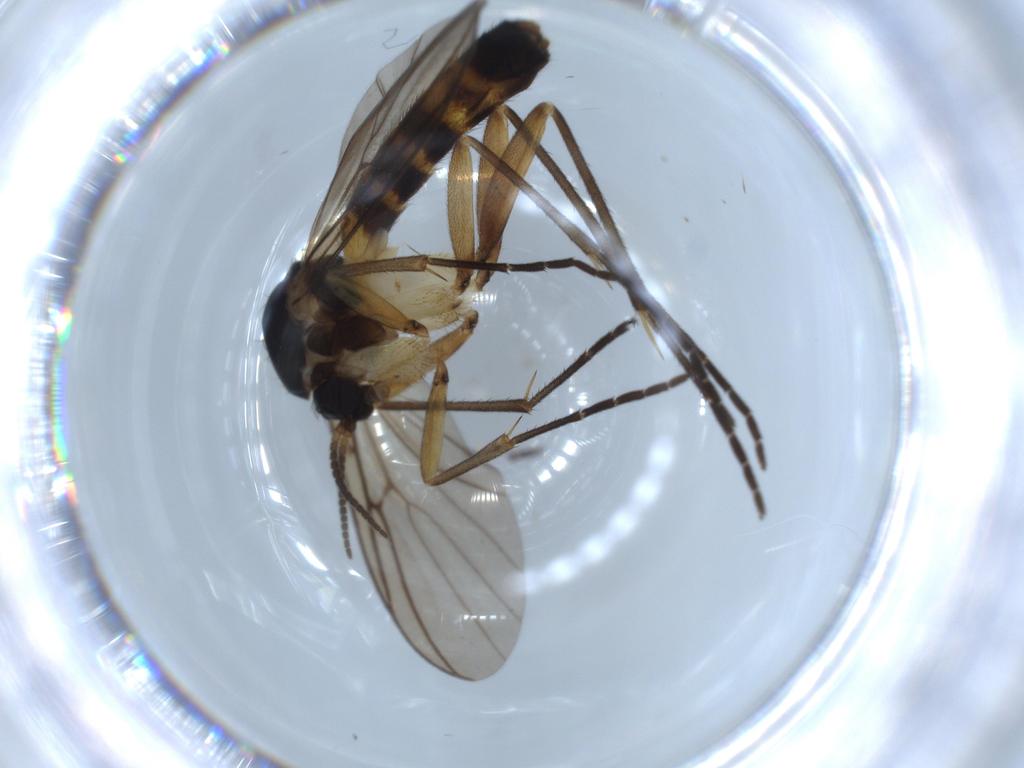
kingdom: Animalia
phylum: Arthropoda
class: Insecta
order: Diptera
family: Mycetophilidae
